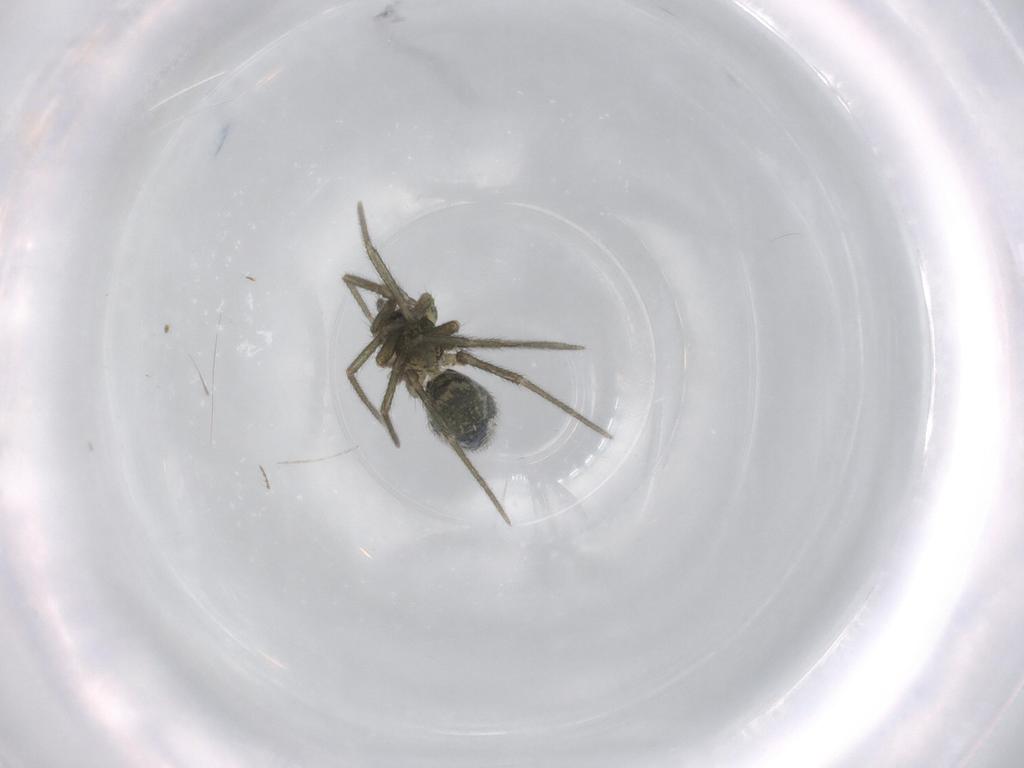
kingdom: Animalia
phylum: Arthropoda
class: Arachnida
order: Araneae
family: Linyphiidae
